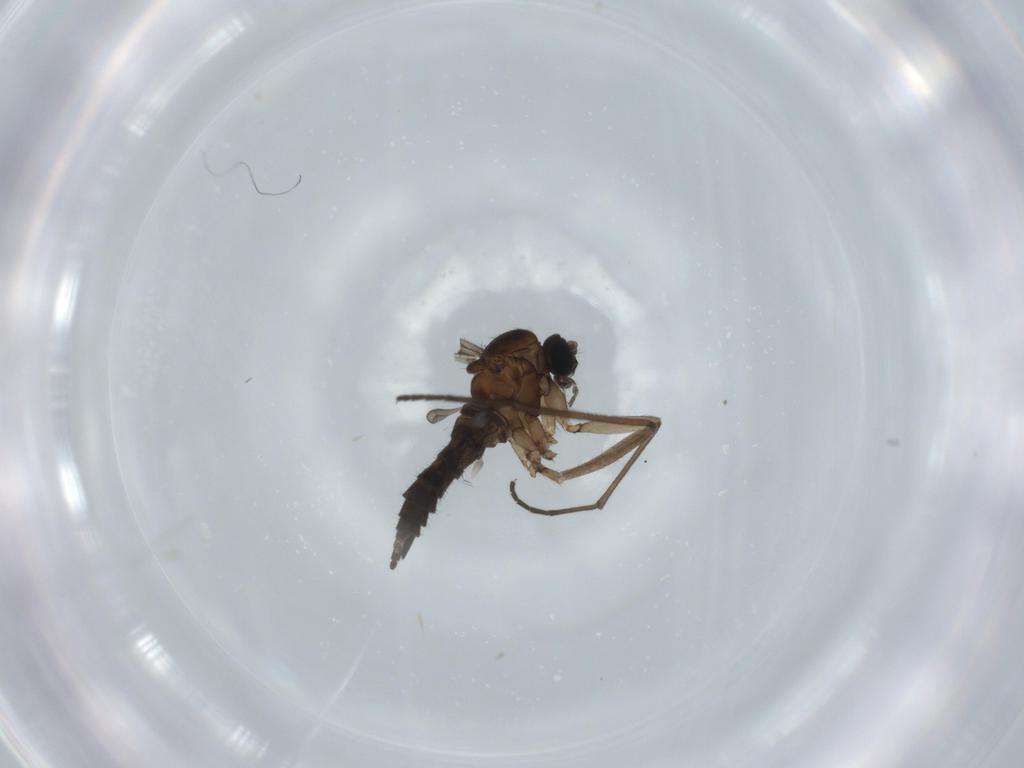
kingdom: Animalia
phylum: Arthropoda
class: Insecta
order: Diptera
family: Sciaridae
